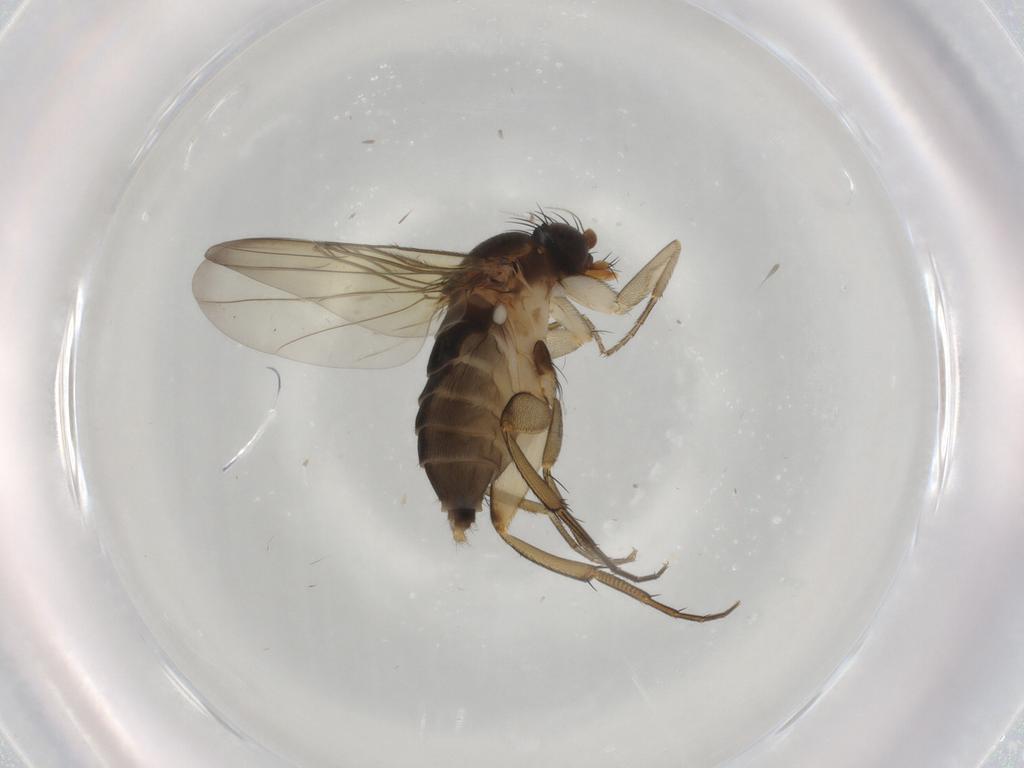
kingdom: Animalia
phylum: Arthropoda
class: Insecta
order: Diptera
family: Phoridae
